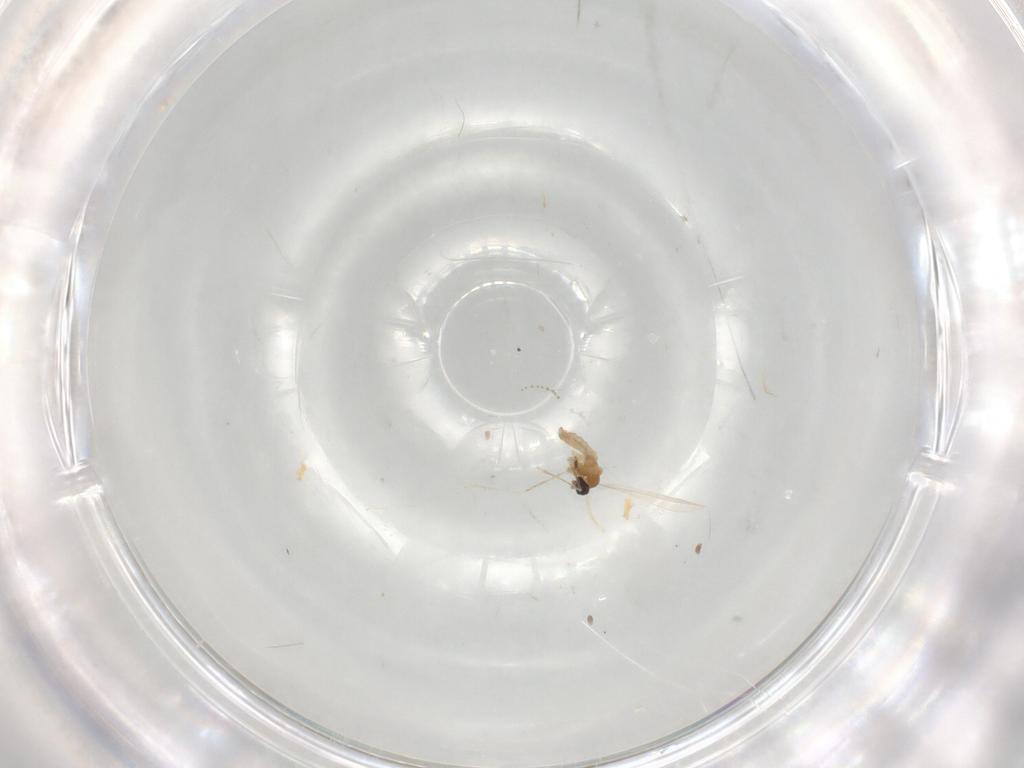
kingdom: Animalia
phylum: Arthropoda
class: Insecta
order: Diptera
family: Cecidomyiidae
